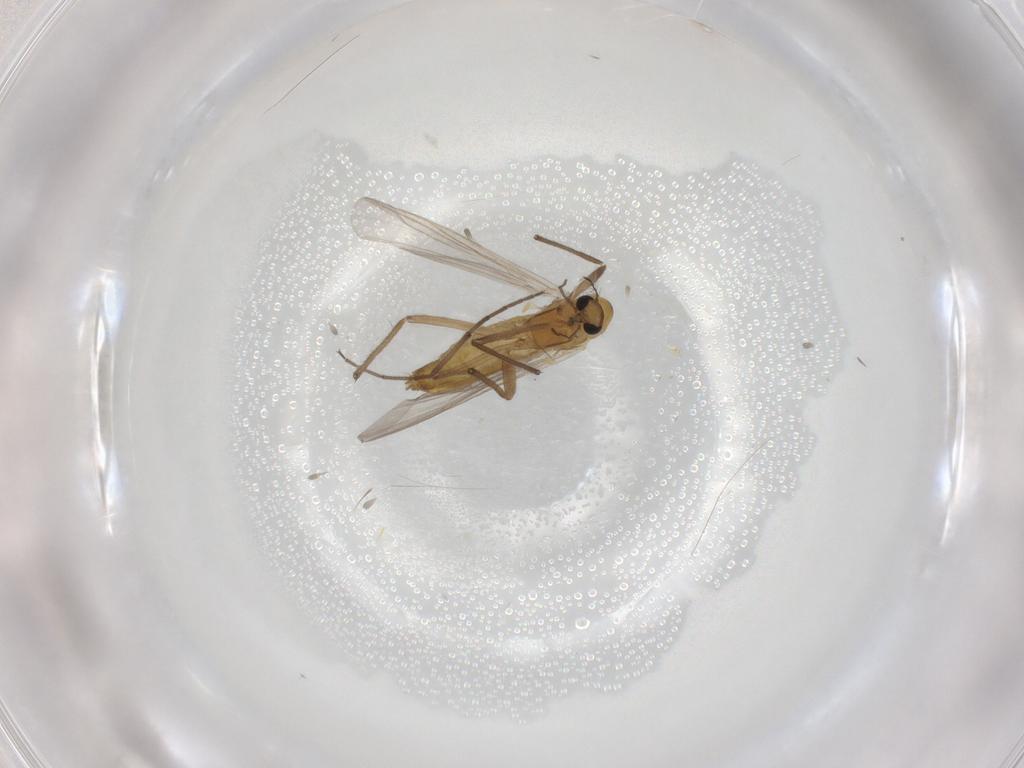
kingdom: Animalia
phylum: Arthropoda
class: Insecta
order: Diptera
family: Chironomidae
